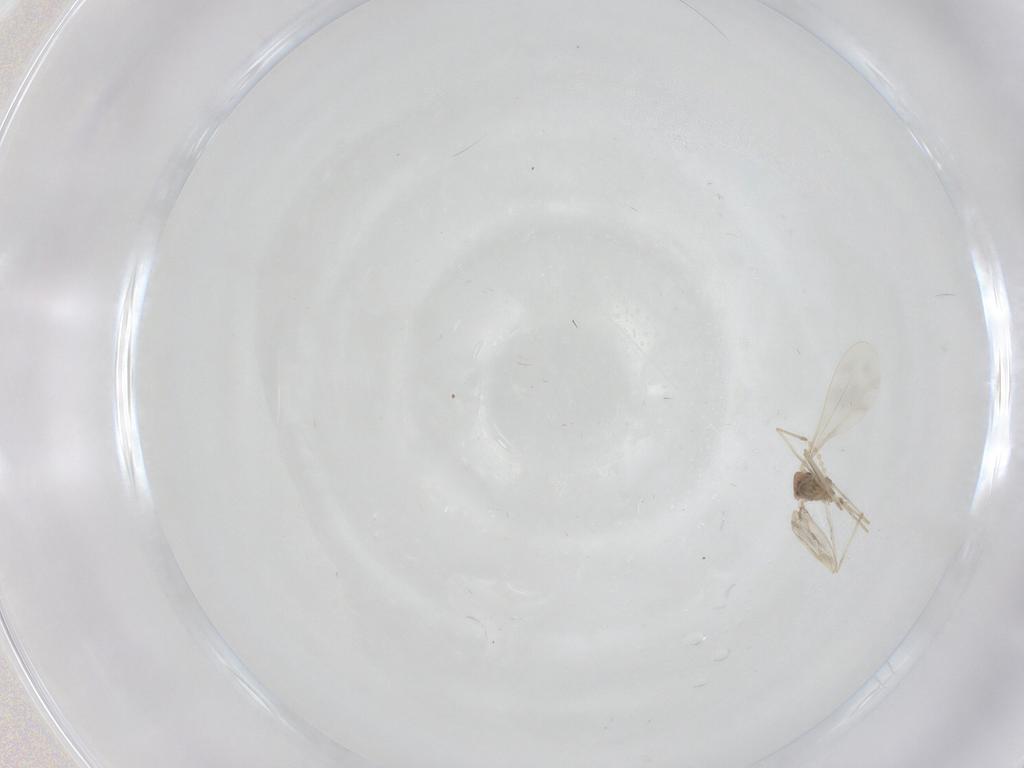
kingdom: Animalia
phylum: Arthropoda
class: Insecta
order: Diptera
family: Cecidomyiidae
